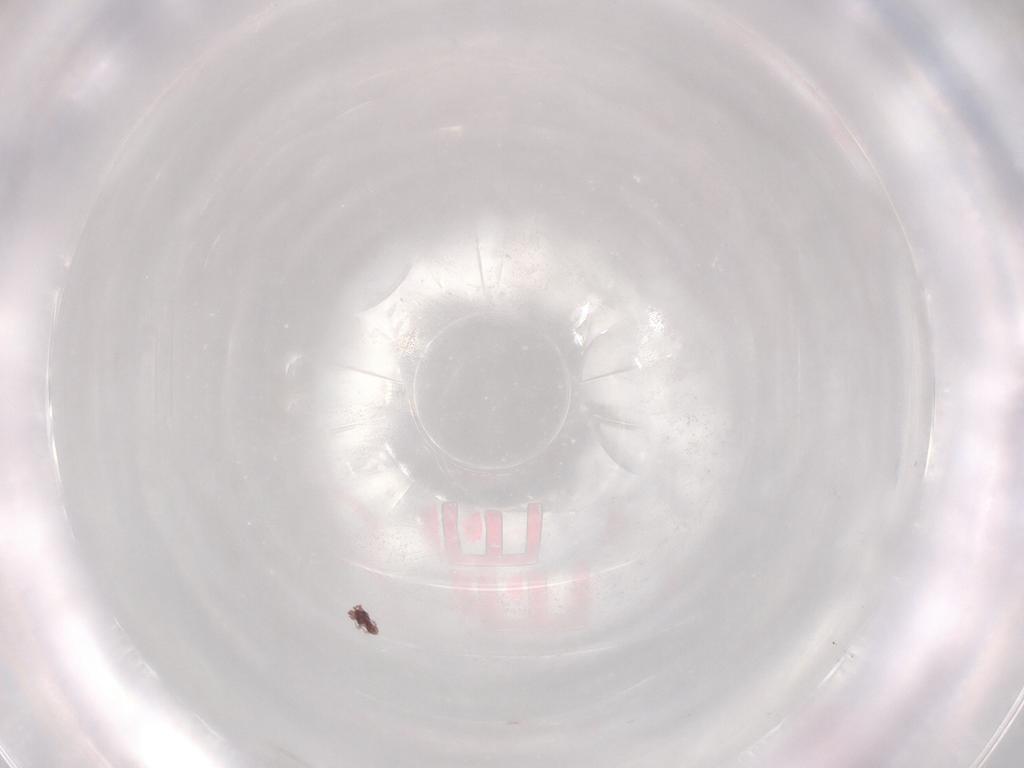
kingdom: Animalia
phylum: Arthropoda
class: Arachnida
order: Sarcoptiformes
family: Alycidae
